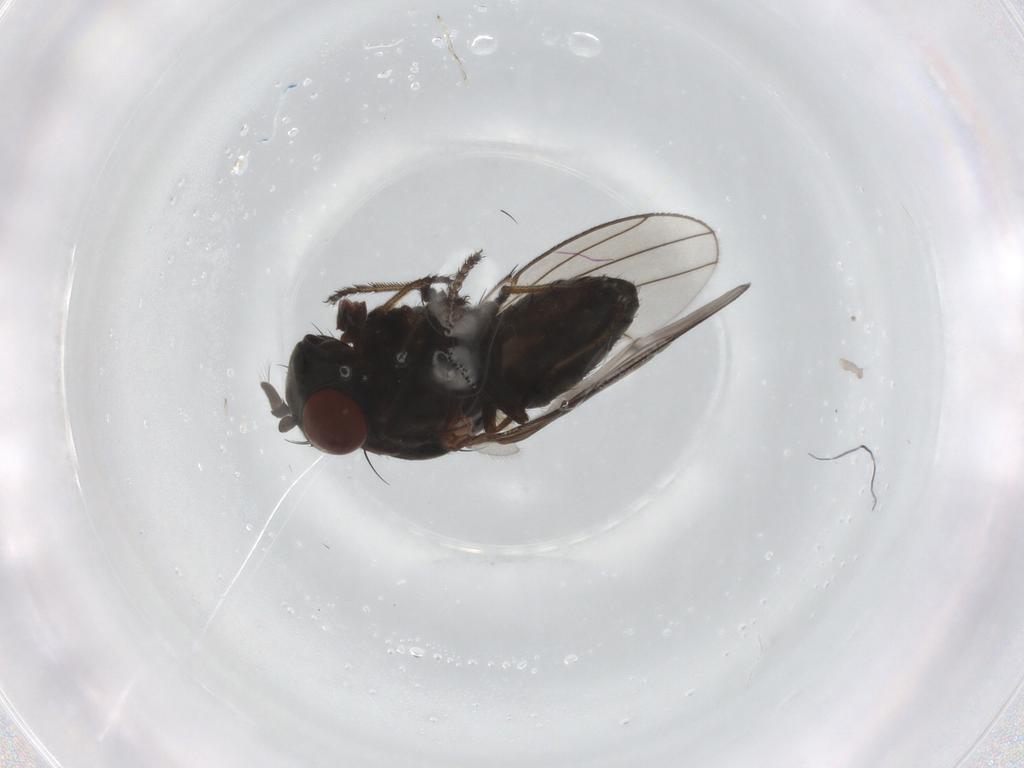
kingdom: Animalia
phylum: Arthropoda
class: Insecta
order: Diptera
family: Ephydridae
